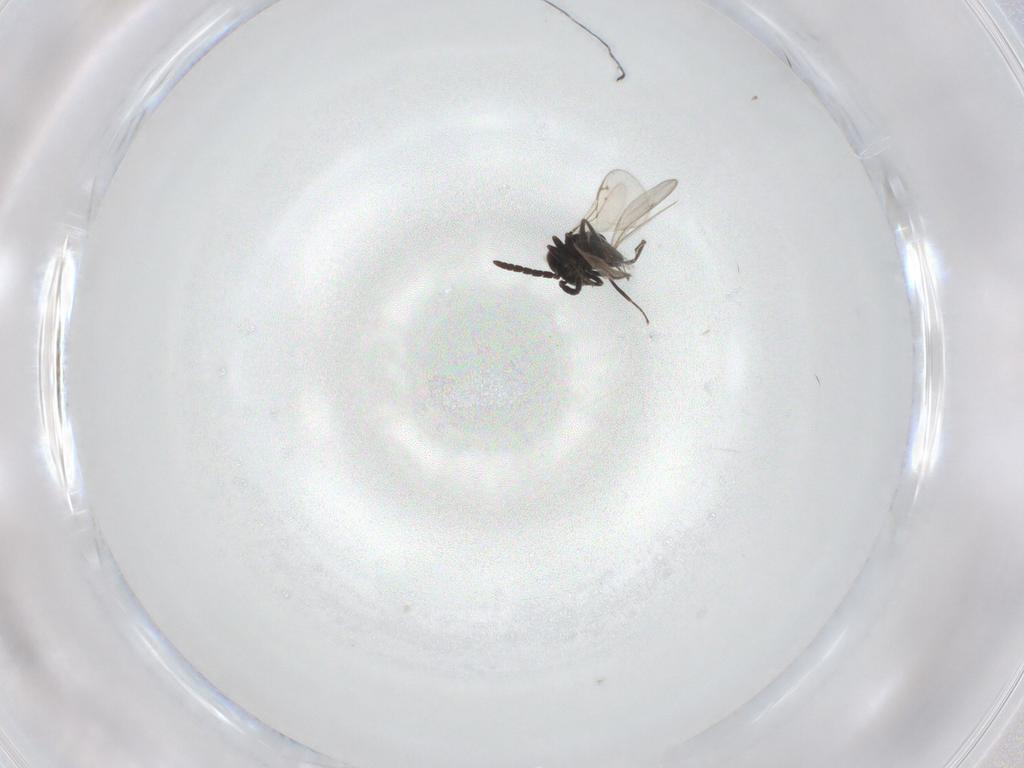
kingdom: Animalia
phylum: Arthropoda
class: Insecta
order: Hymenoptera
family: Eunotidae
